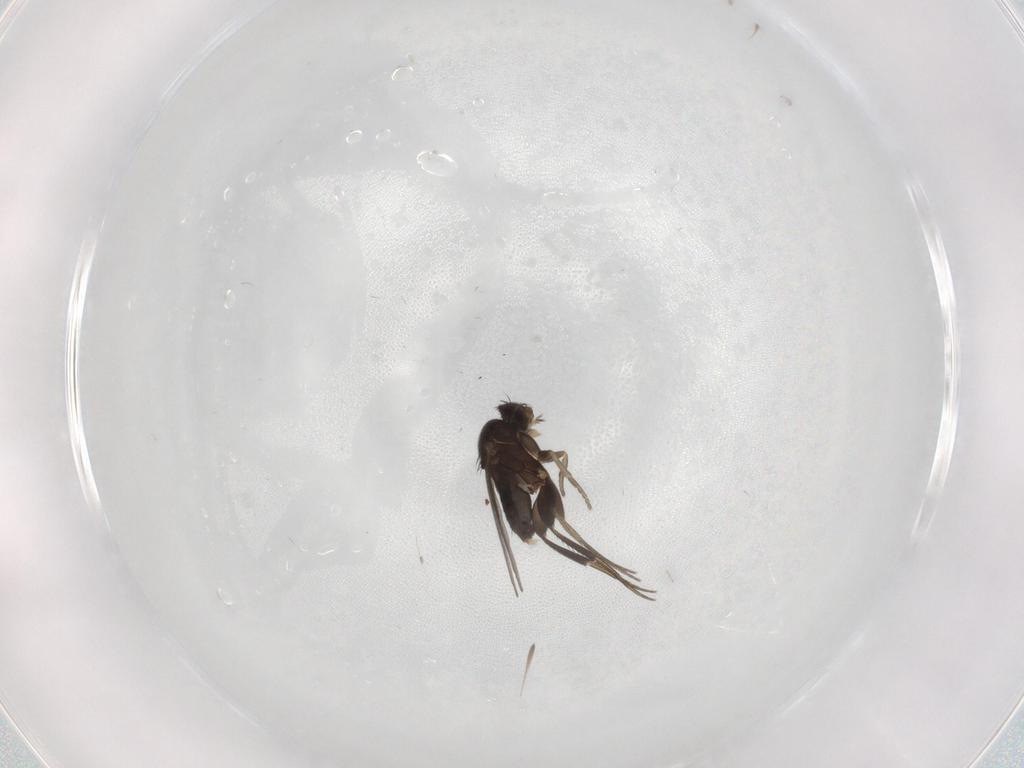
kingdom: Animalia
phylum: Arthropoda
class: Insecta
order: Diptera
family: Phoridae
